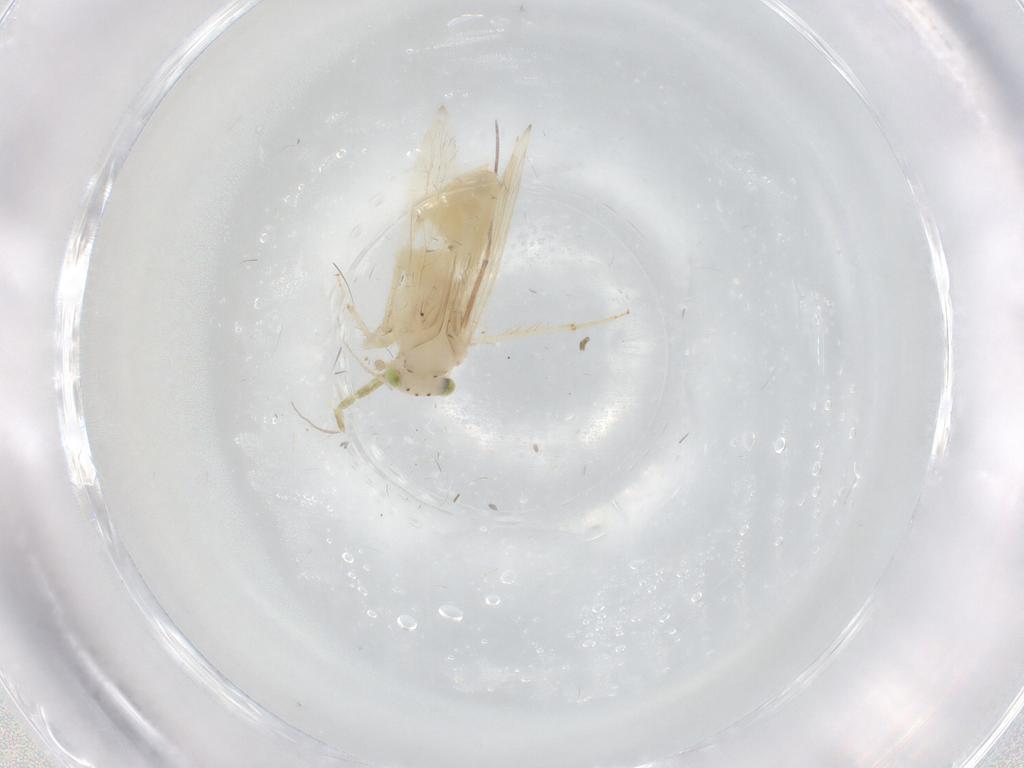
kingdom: Animalia
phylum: Arthropoda
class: Insecta
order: Psocodea
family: Lepidopsocidae
